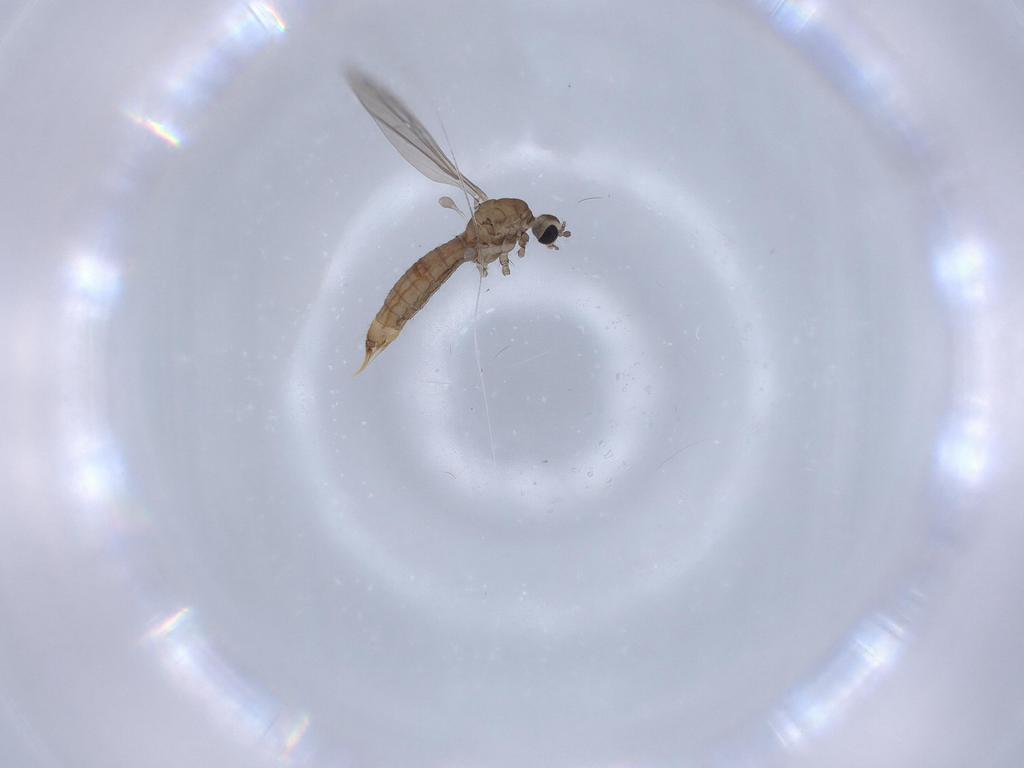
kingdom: Animalia
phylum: Arthropoda
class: Insecta
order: Diptera
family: Limoniidae
